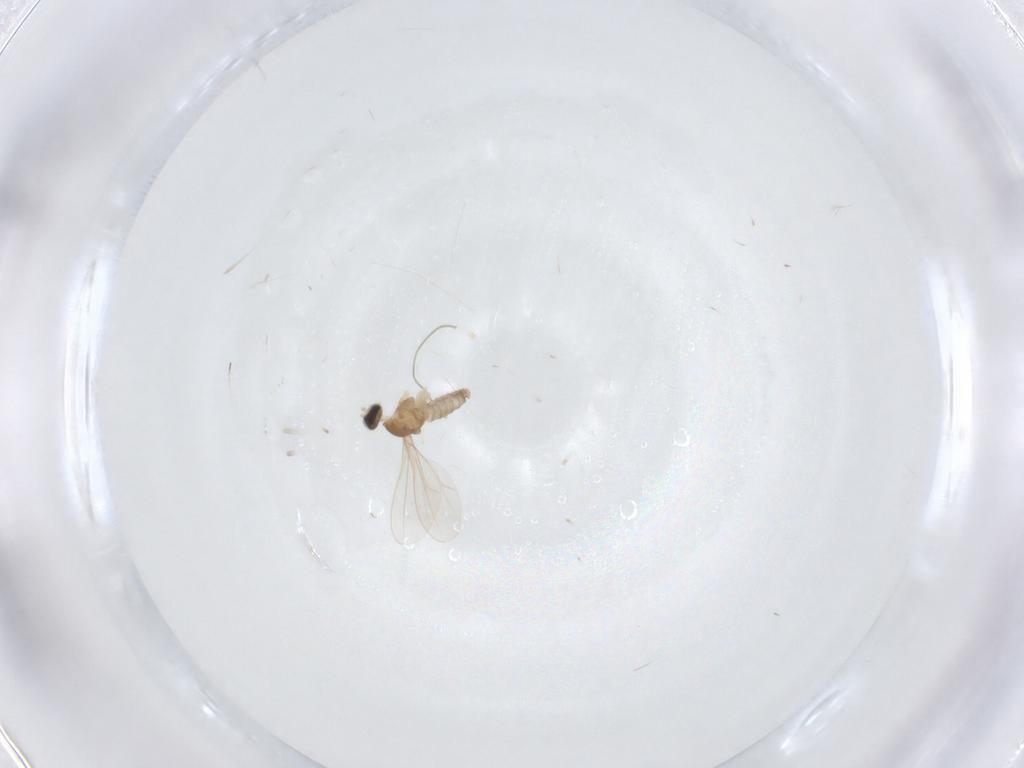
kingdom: Animalia
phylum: Arthropoda
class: Insecta
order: Diptera
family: Cecidomyiidae
